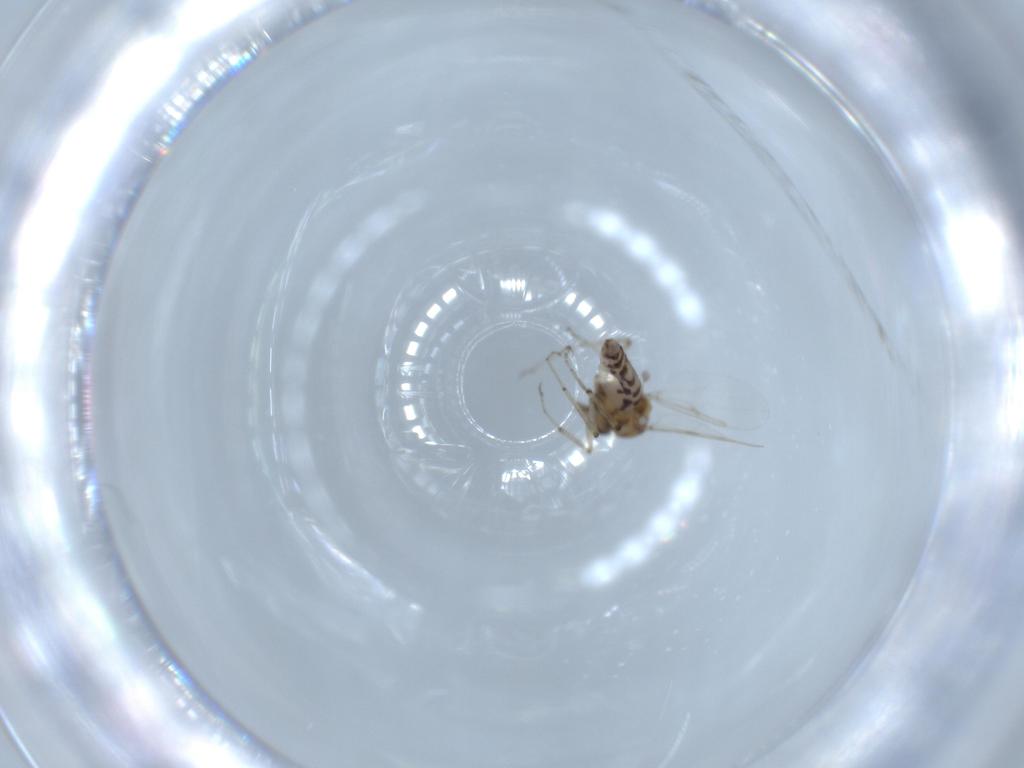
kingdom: Animalia
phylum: Arthropoda
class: Insecta
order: Diptera
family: Ceratopogonidae
